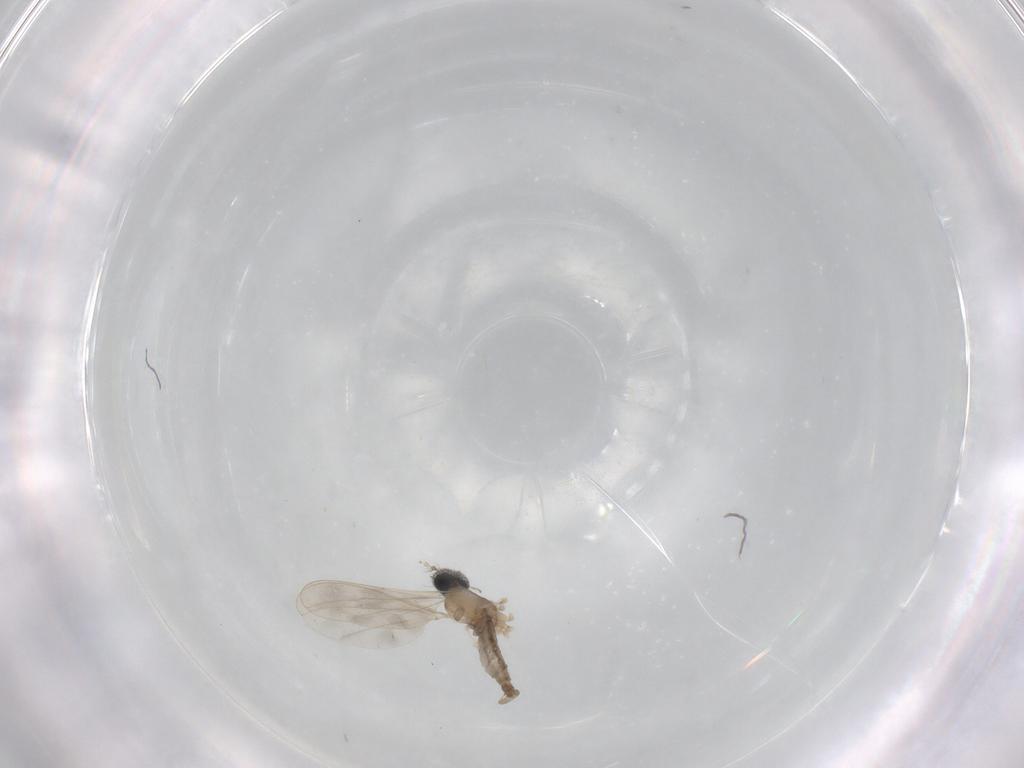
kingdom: Animalia
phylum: Arthropoda
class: Insecta
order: Diptera
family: Cecidomyiidae
